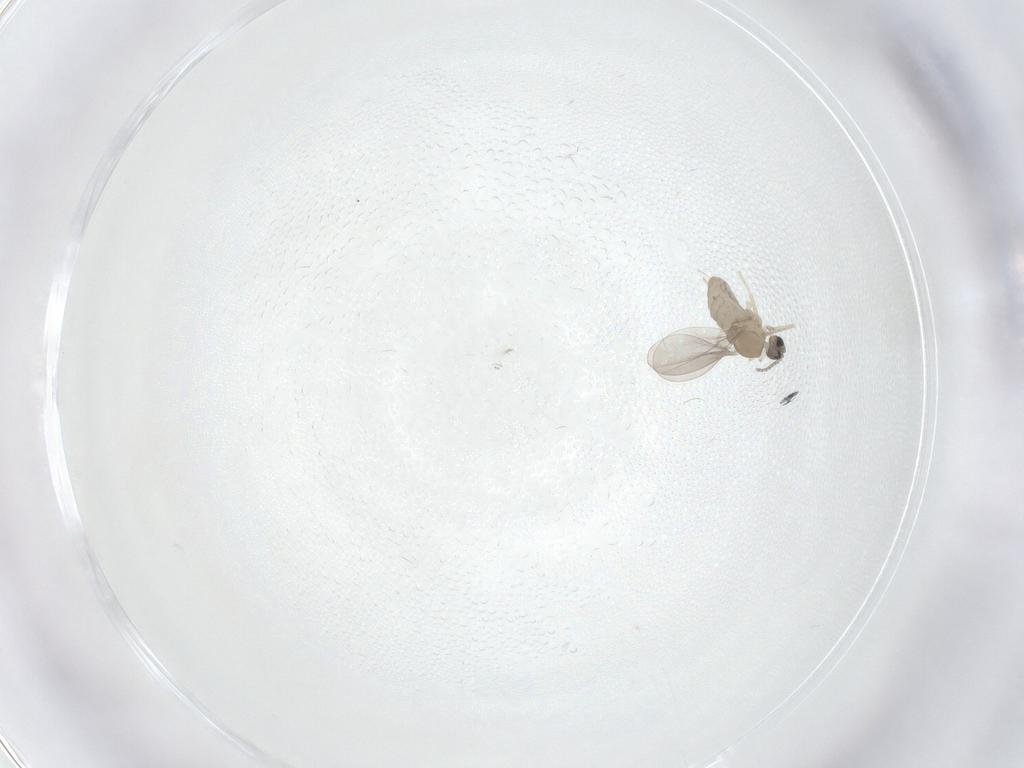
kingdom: Animalia
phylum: Arthropoda
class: Insecta
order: Diptera
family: Cecidomyiidae
